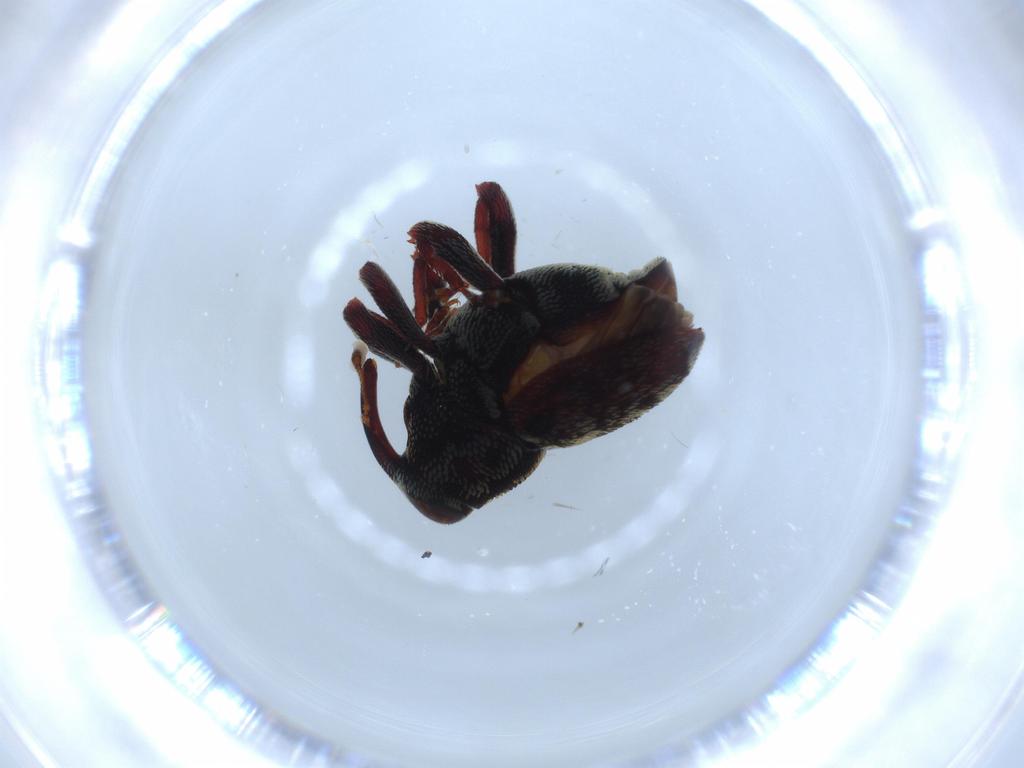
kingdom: Animalia
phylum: Arthropoda
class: Insecta
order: Coleoptera
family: Curculionidae
